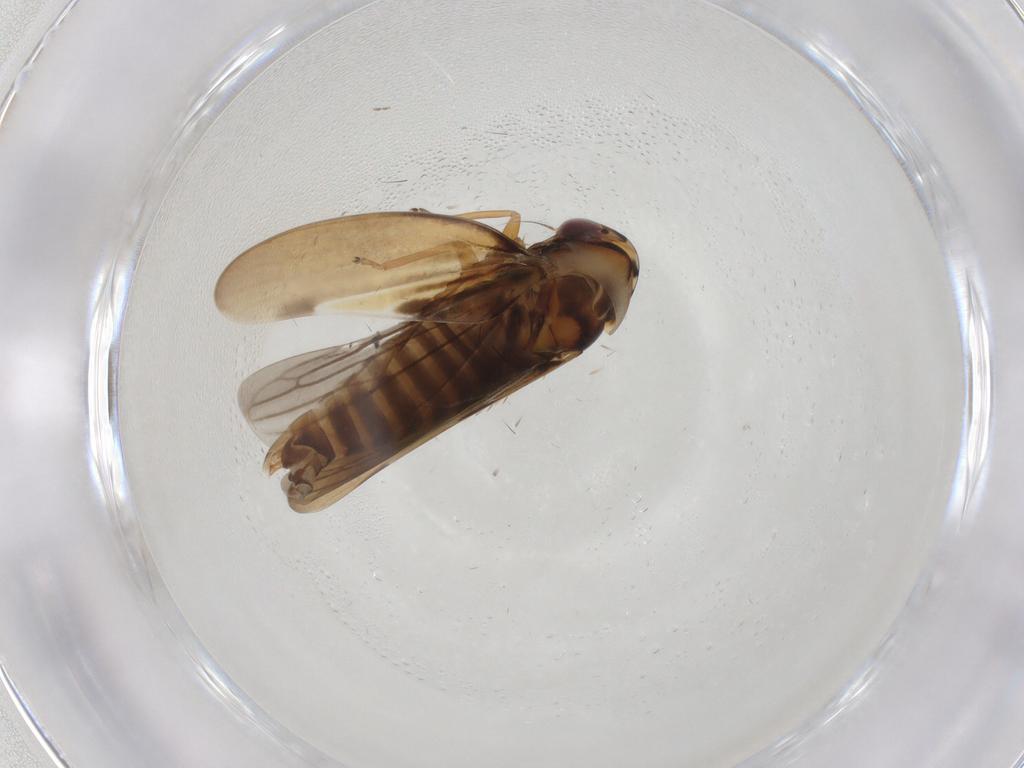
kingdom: Animalia
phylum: Arthropoda
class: Insecta
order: Hemiptera
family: Cicadellidae
